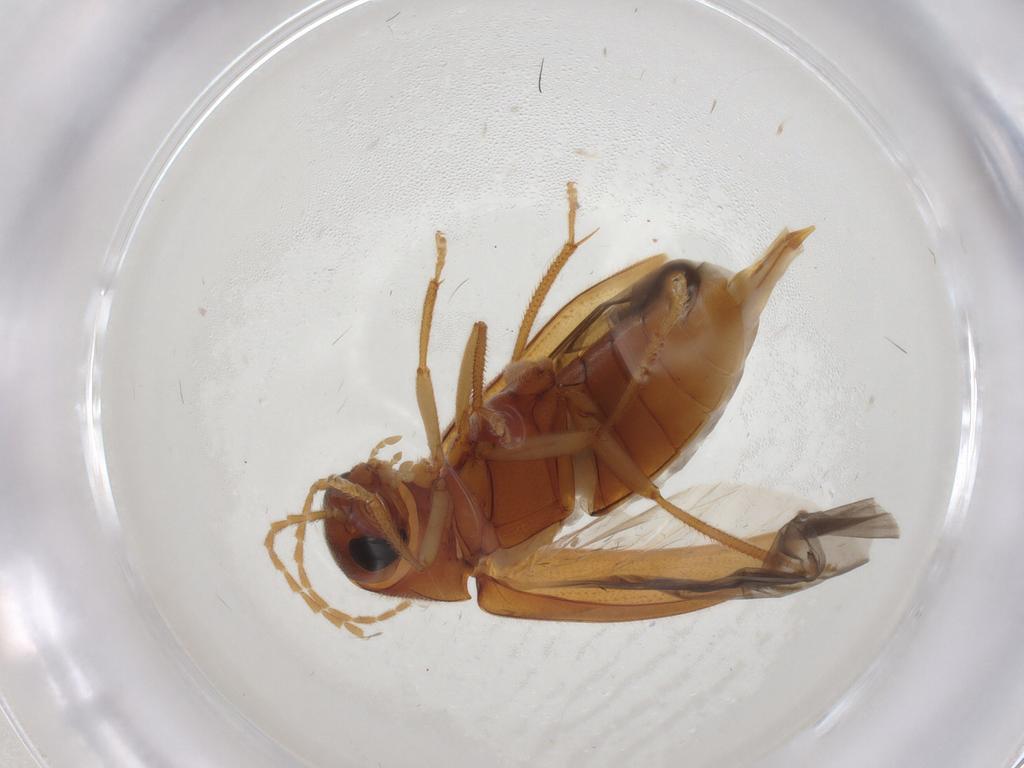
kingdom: Animalia
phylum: Arthropoda
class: Insecta
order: Coleoptera
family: Ptilodactylidae
